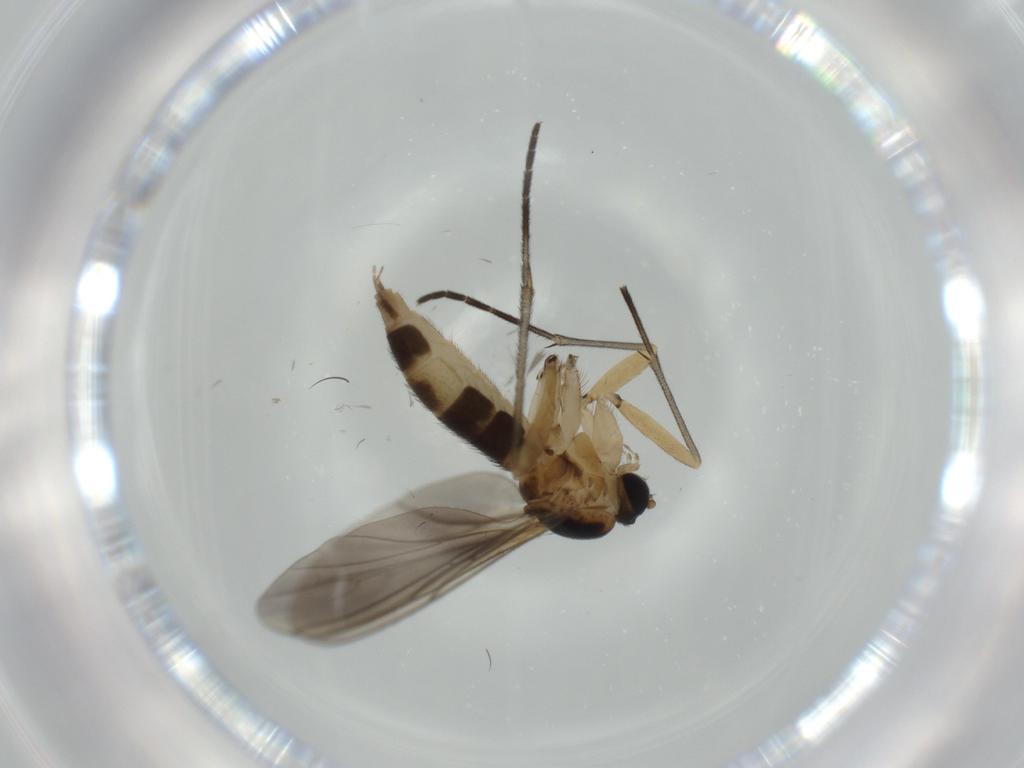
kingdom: Animalia
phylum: Arthropoda
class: Insecta
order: Diptera
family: Sciaridae
